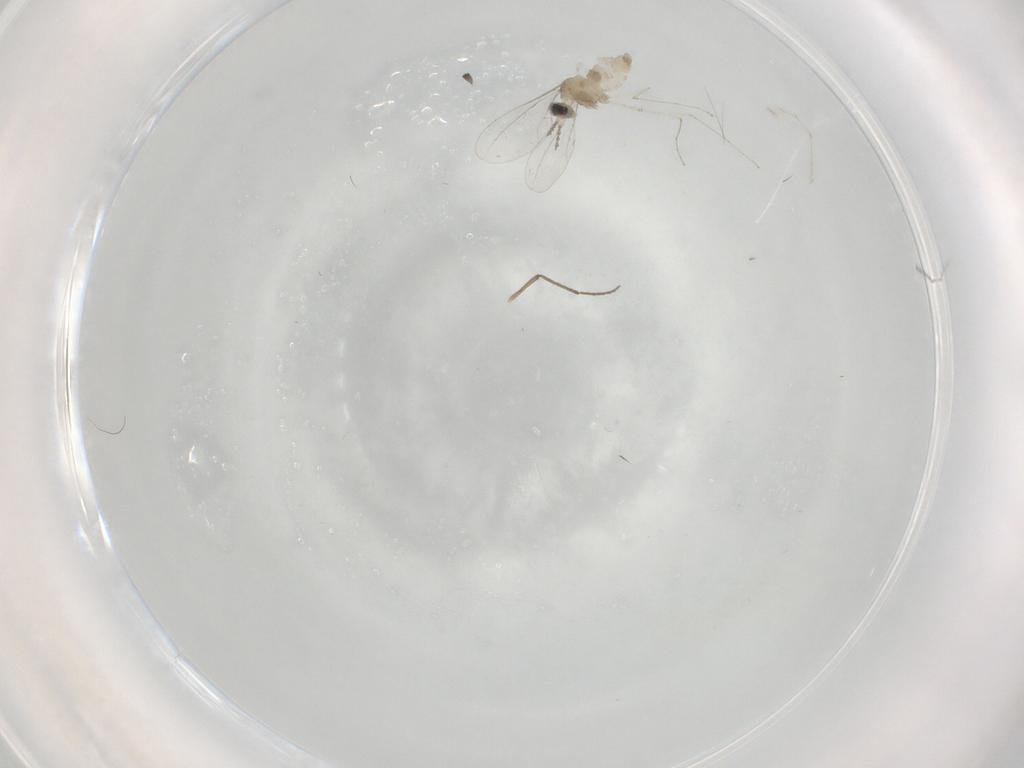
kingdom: Animalia
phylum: Arthropoda
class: Insecta
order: Diptera
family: Cecidomyiidae
